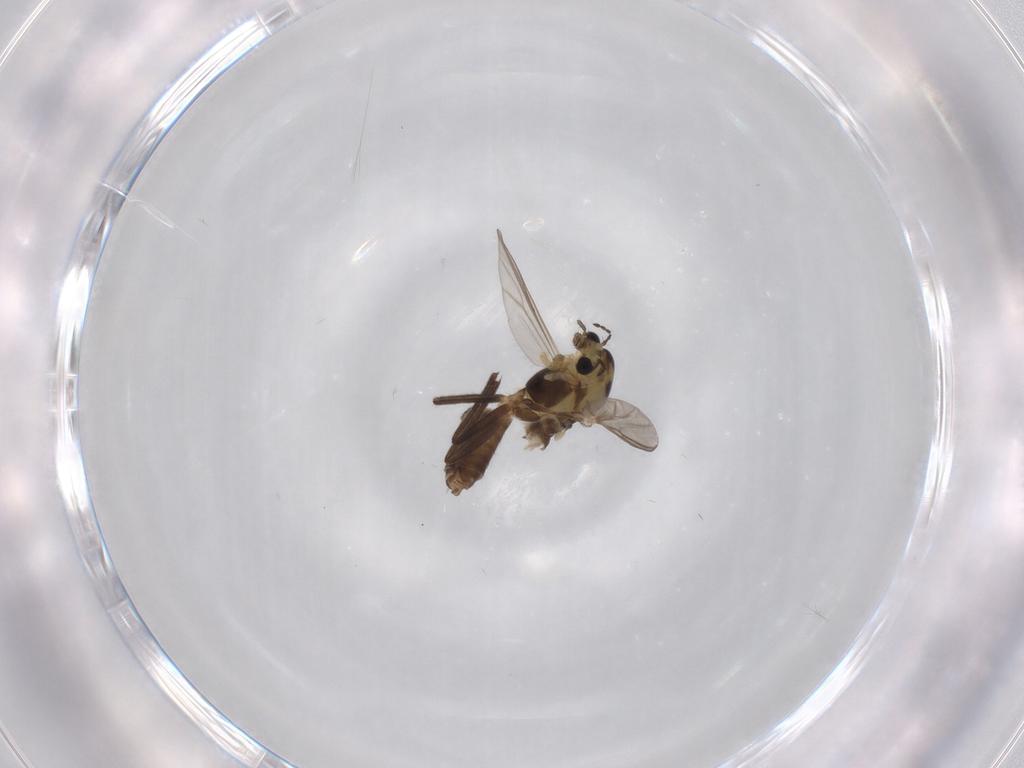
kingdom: Animalia
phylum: Arthropoda
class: Insecta
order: Diptera
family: Chironomidae
